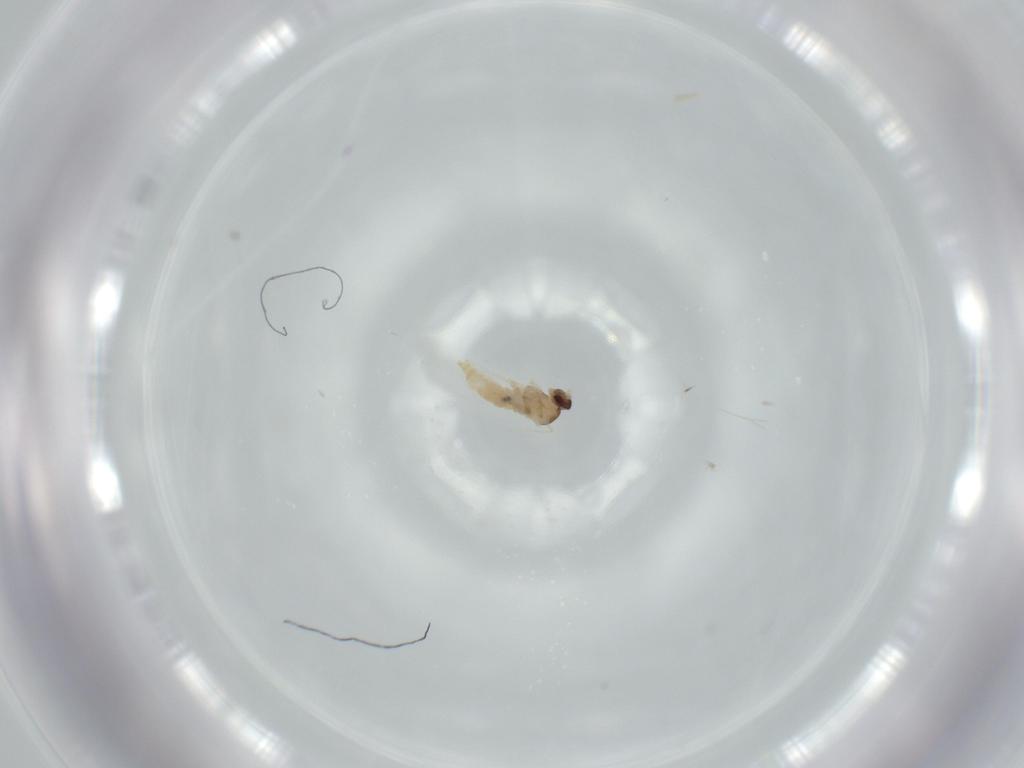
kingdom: Animalia
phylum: Arthropoda
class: Insecta
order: Diptera
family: Cecidomyiidae
